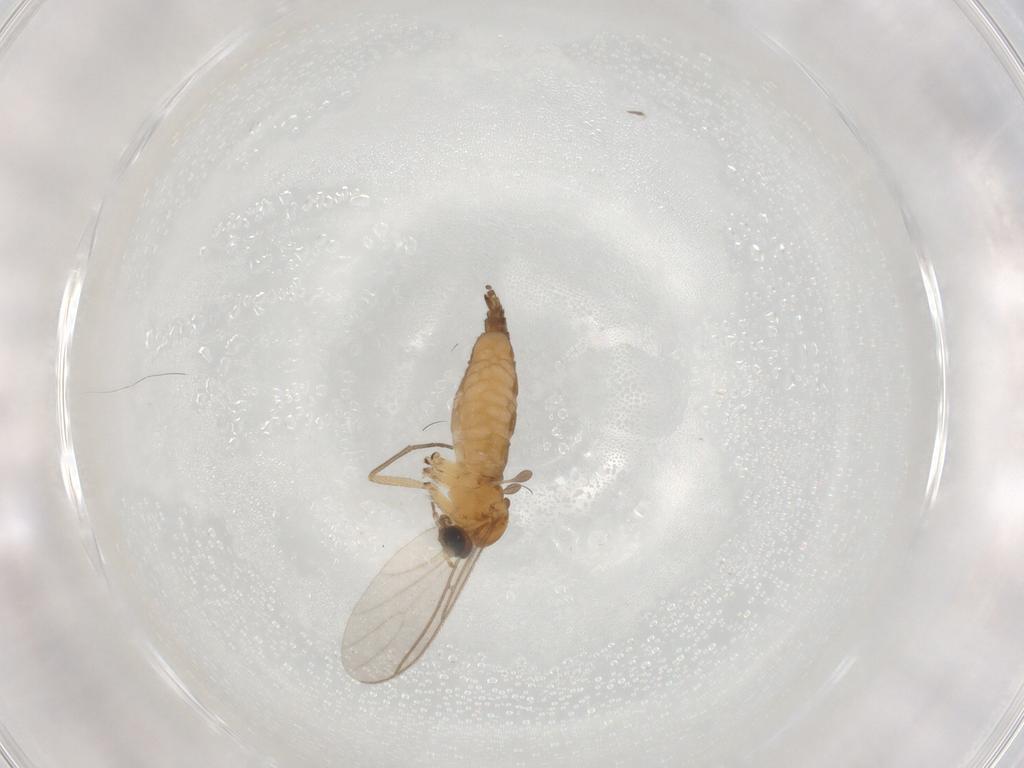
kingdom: Animalia
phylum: Arthropoda
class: Insecta
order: Diptera
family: Sciaridae
